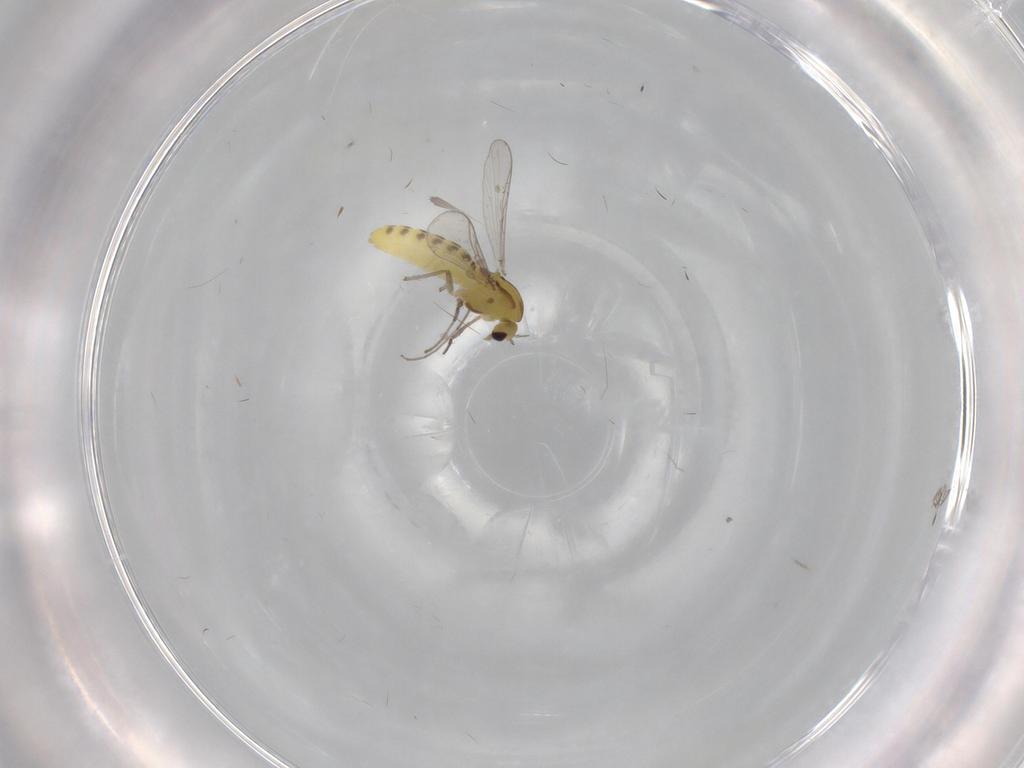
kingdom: Animalia
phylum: Arthropoda
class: Insecta
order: Diptera
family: Chironomidae
